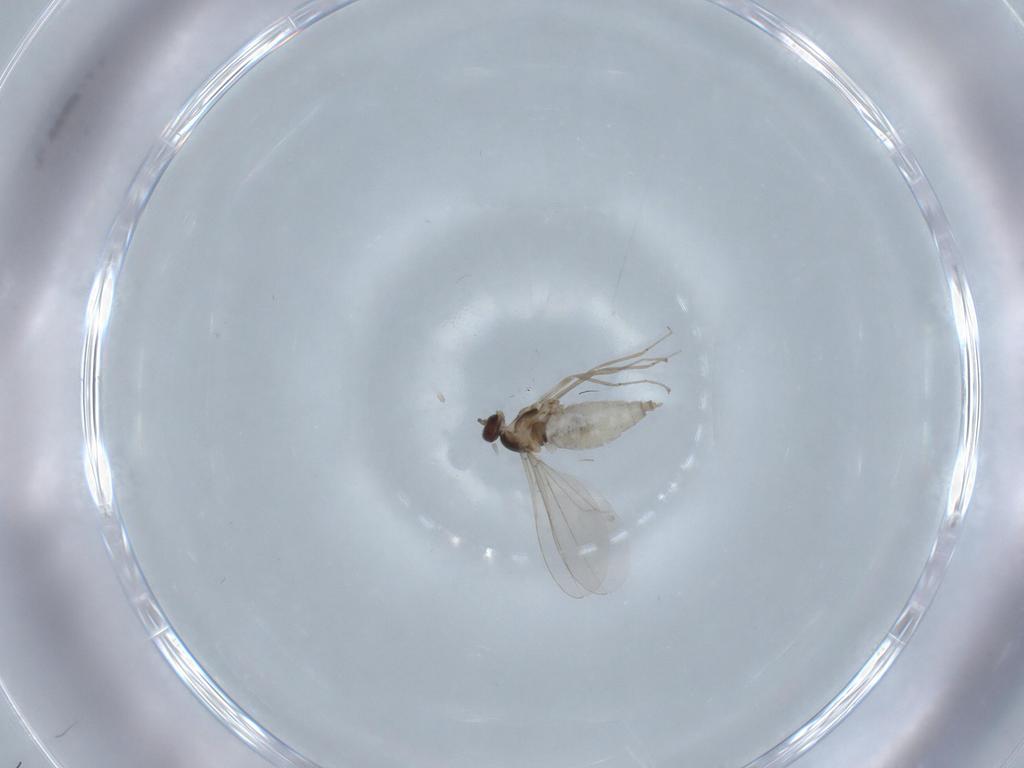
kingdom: Animalia
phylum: Arthropoda
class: Insecta
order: Diptera
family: Cecidomyiidae
